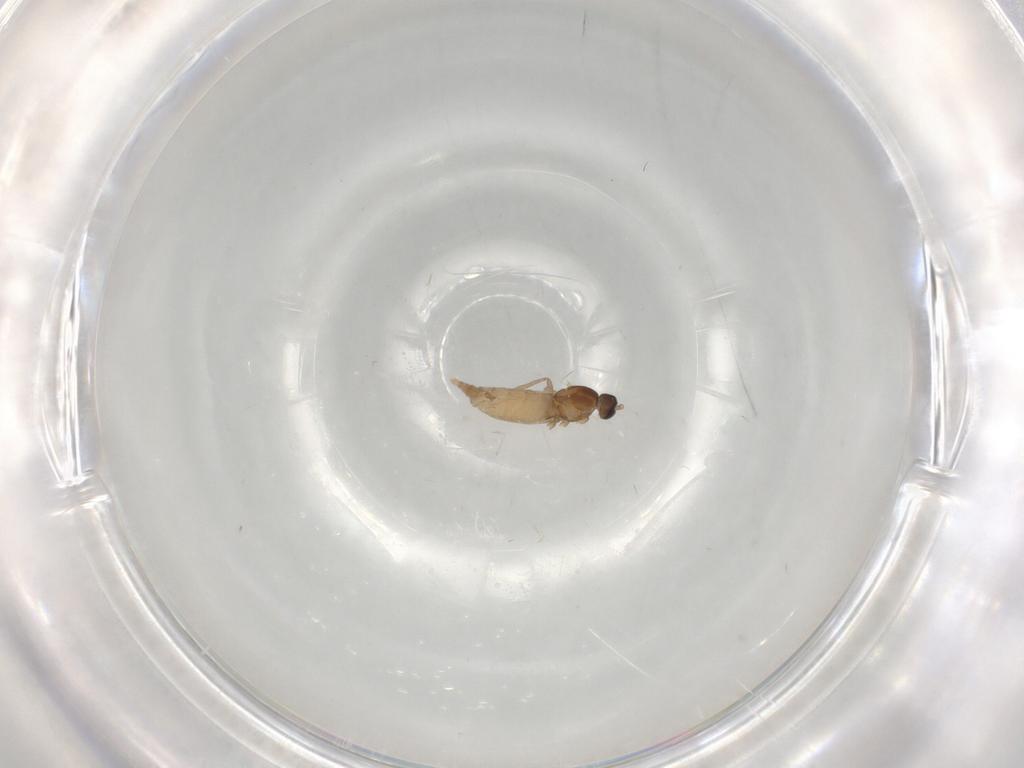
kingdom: Animalia
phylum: Arthropoda
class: Insecta
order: Diptera
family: Cecidomyiidae
